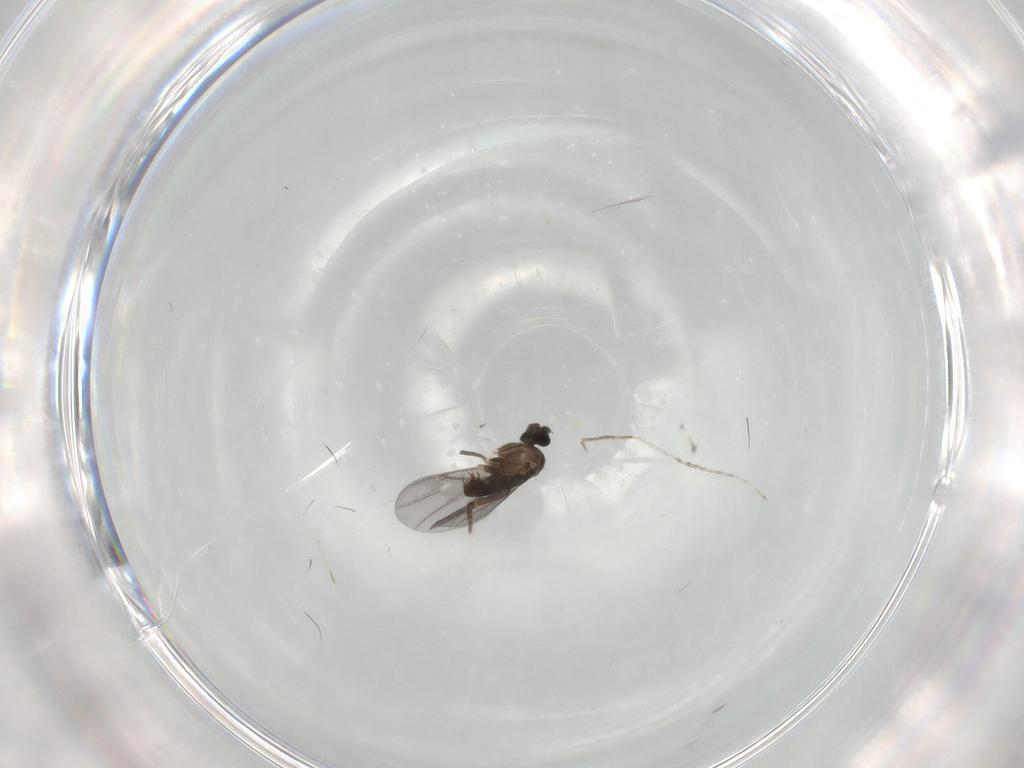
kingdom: Animalia
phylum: Arthropoda
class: Insecta
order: Diptera
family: Phoridae
